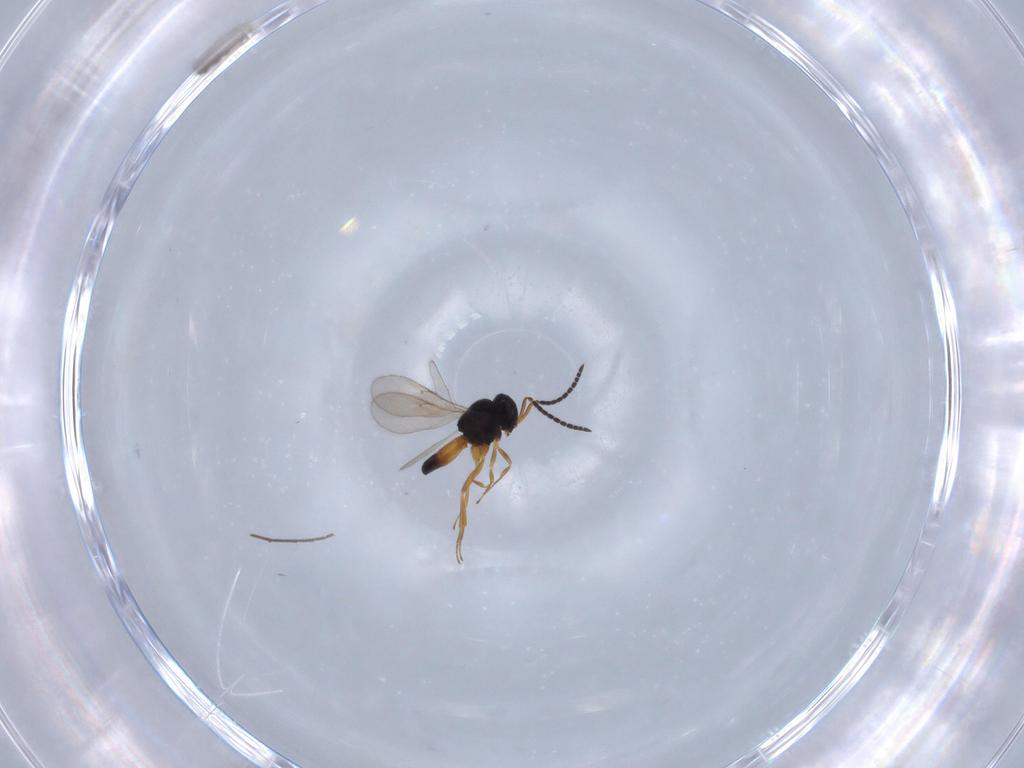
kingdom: Animalia
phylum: Arthropoda
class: Insecta
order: Hymenoptera
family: Scelionidae
